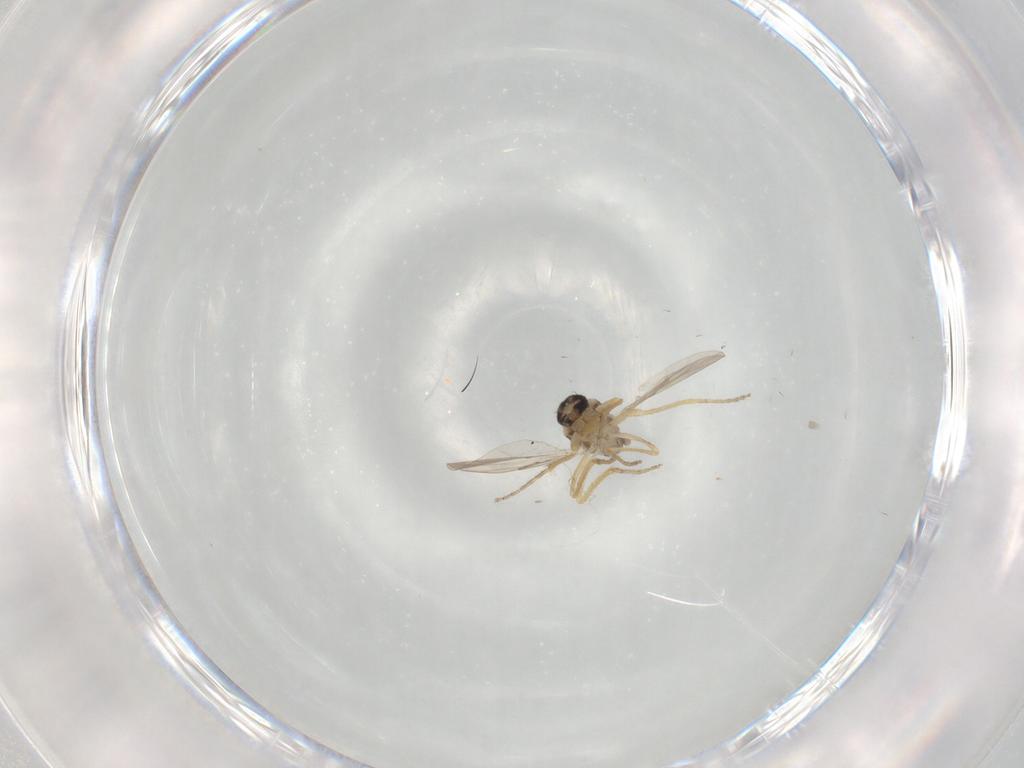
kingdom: Animalia
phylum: Arthropoda
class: Insecta
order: Diptera
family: Ceratopogonidae
